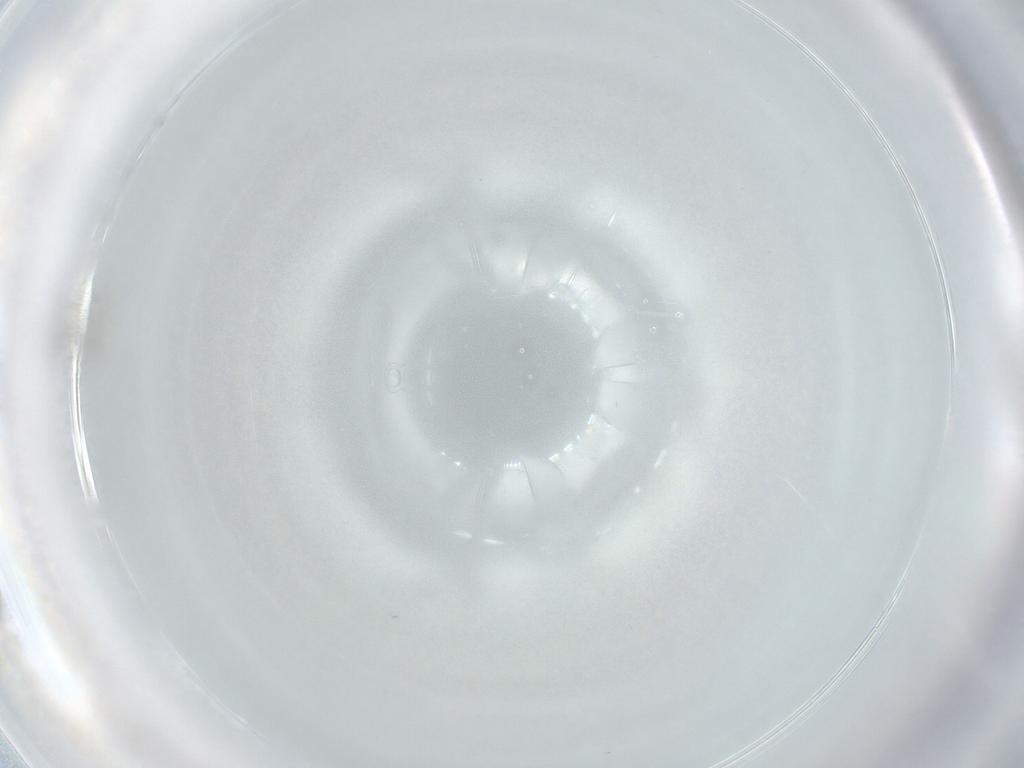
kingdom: Animalia
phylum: Arthropoda
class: Insecta
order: Diptera
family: Cecidomyiidae
